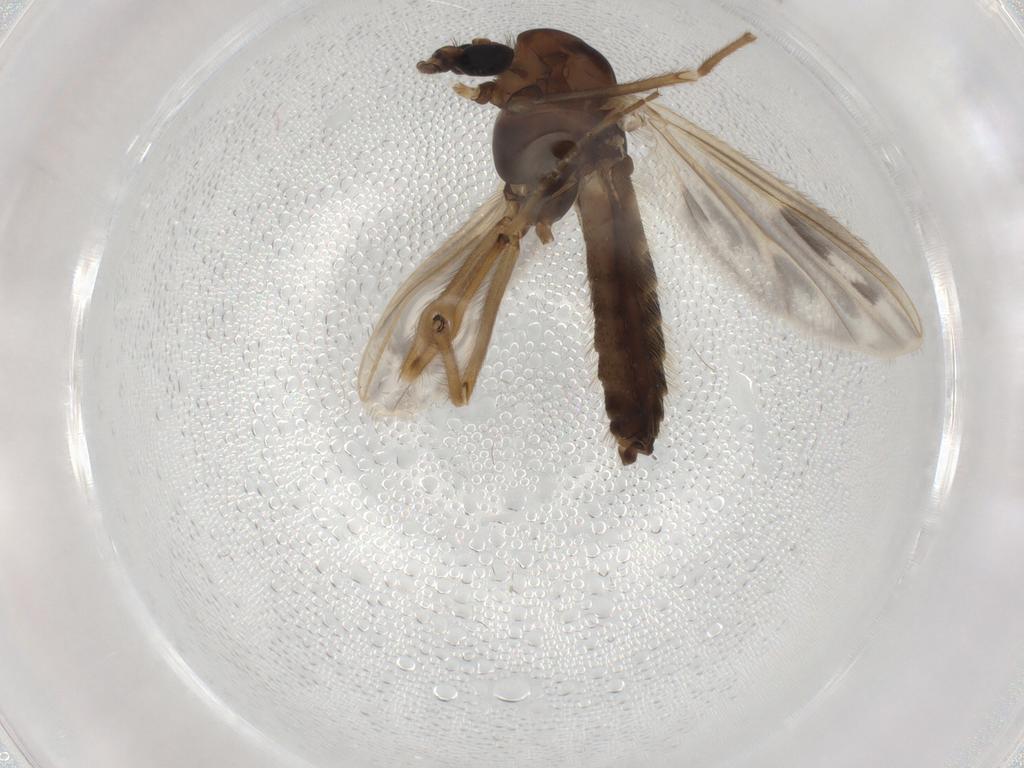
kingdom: Animalia
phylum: Arthropoda
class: Insecta
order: Diptera
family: Chironomidae
